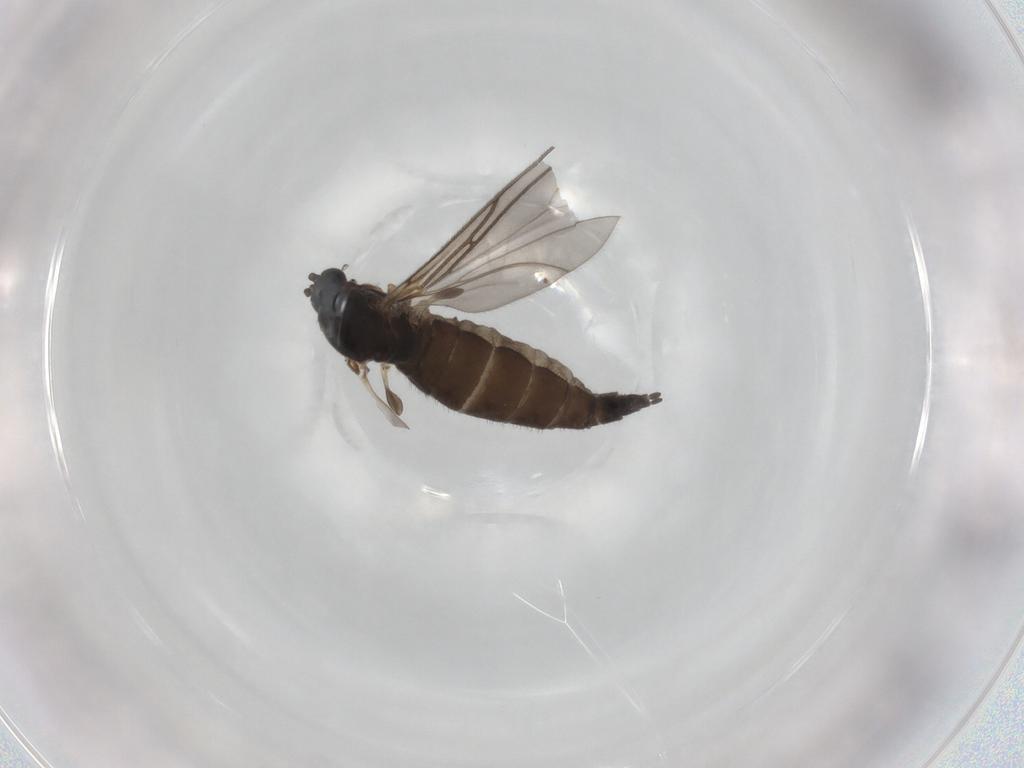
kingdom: Animalia
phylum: Arthropoda
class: Insecta
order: Diptera
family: Sciaridae
